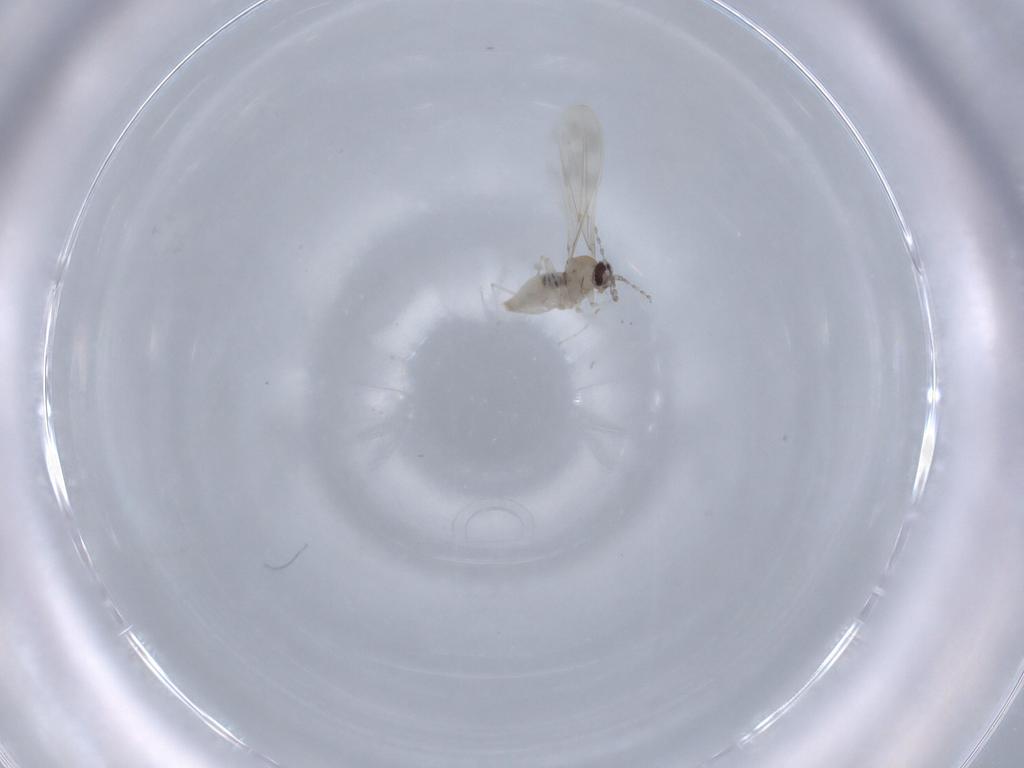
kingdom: Animalia
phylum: Arthropoda
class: Insecta
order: Diptera
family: Cecidomyiidae
